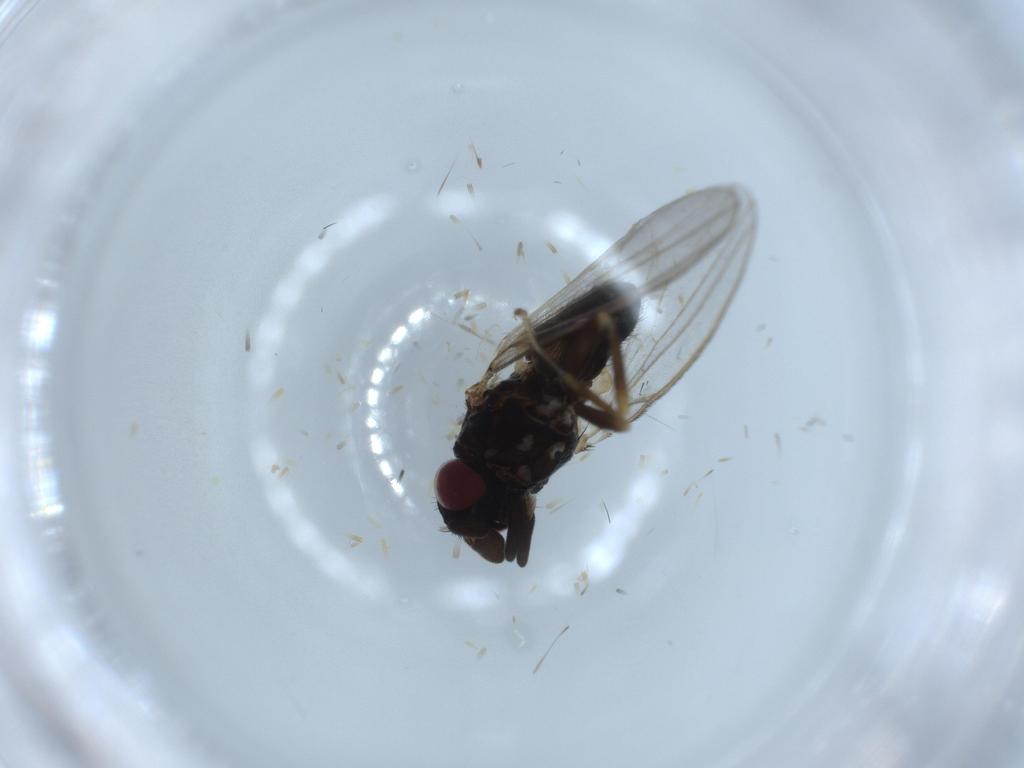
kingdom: Animalia
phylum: Arthropoda
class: Insecta
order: Diptera
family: Milichiidae
